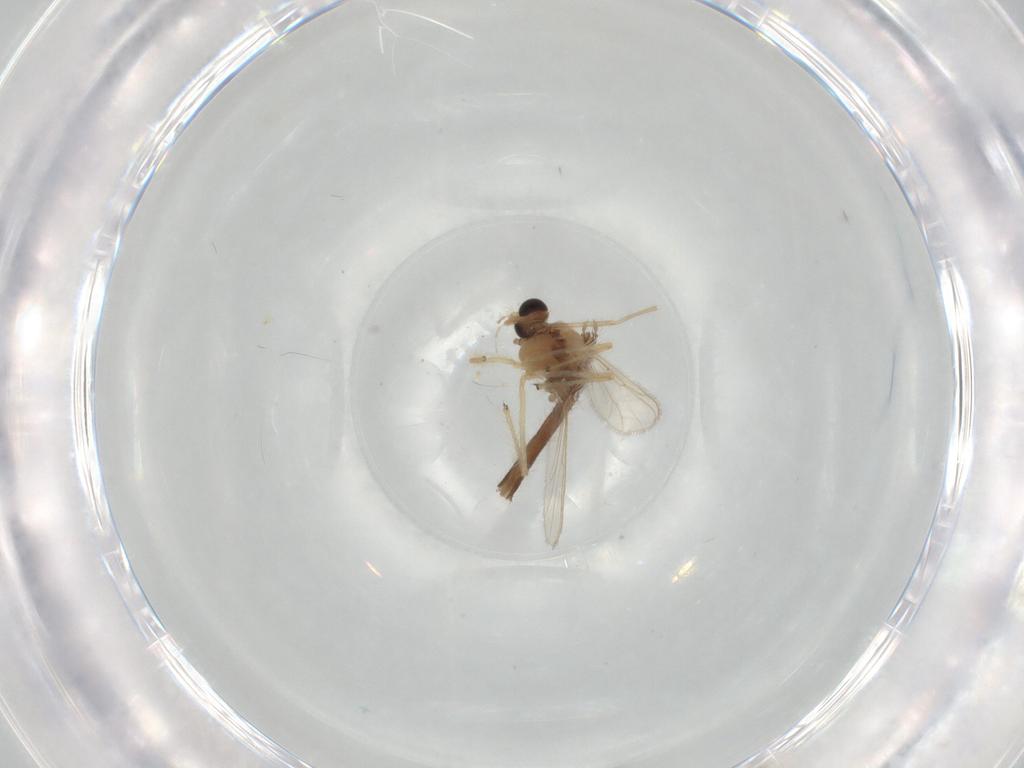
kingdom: Animalia
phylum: Arthropoda
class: Insecta
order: Diptera
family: Chironomidae
